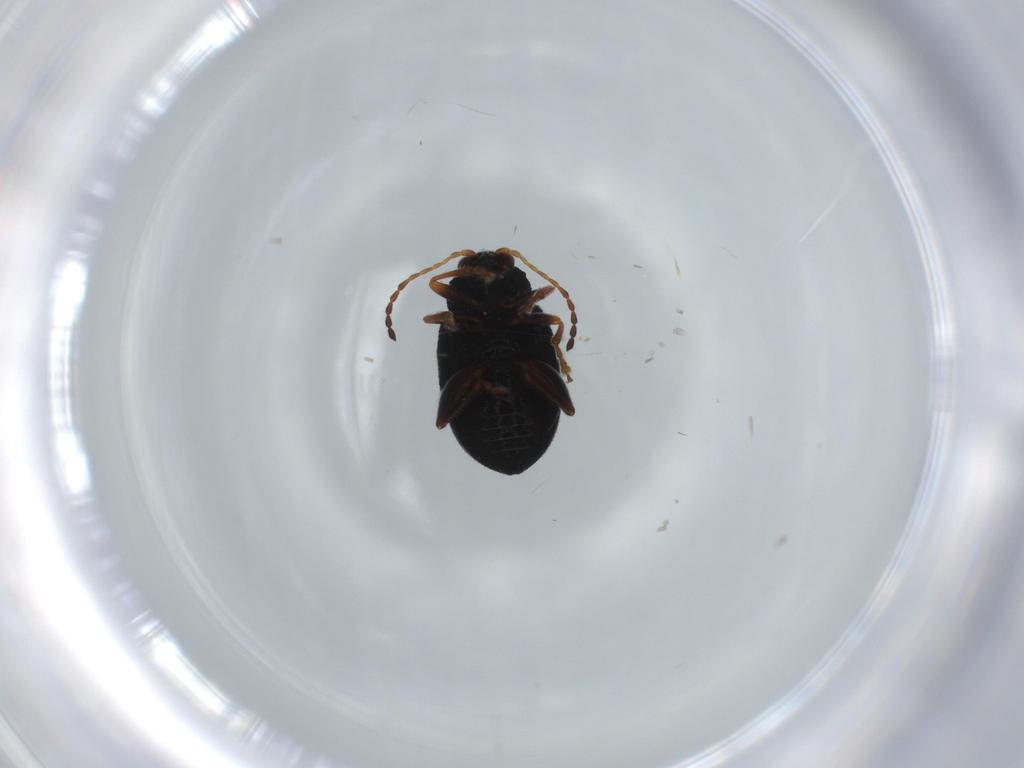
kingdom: Animalia
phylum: Arthropoda
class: Insecta
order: Coleoptera
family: Chrysomelidae
